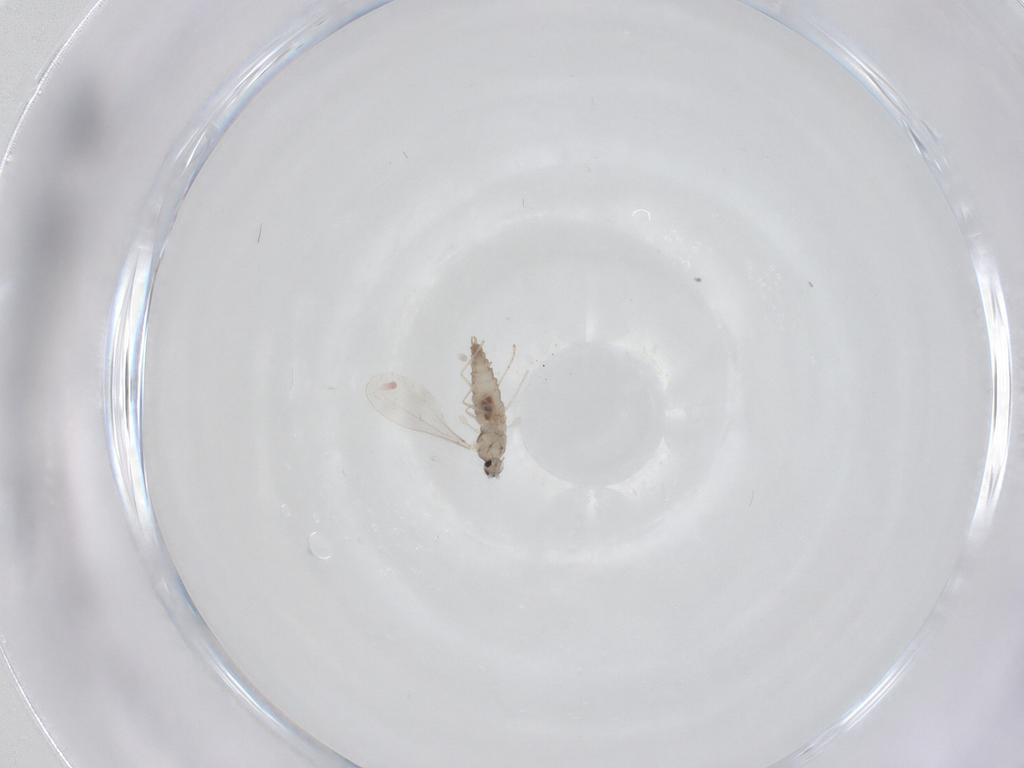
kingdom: Animalia
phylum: Arthropoda
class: Insecta
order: Diptera
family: Cecidomyiidae
